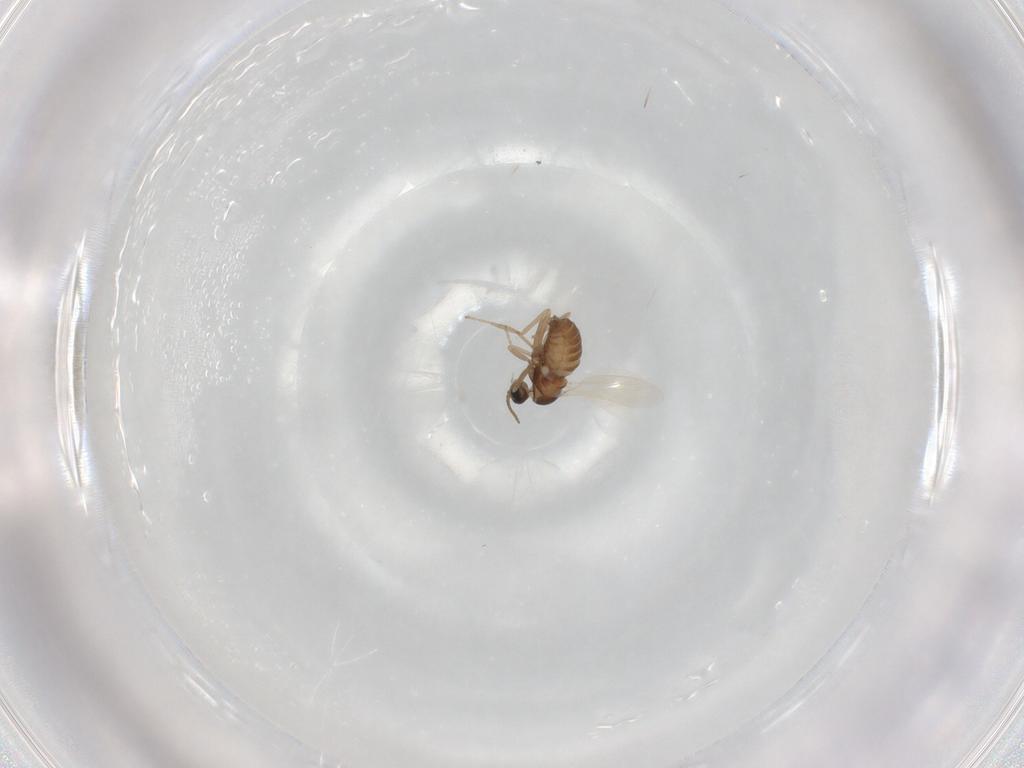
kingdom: Animalia
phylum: Arthropoda
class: Insecta
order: Diptera
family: Cecidomyiidae
